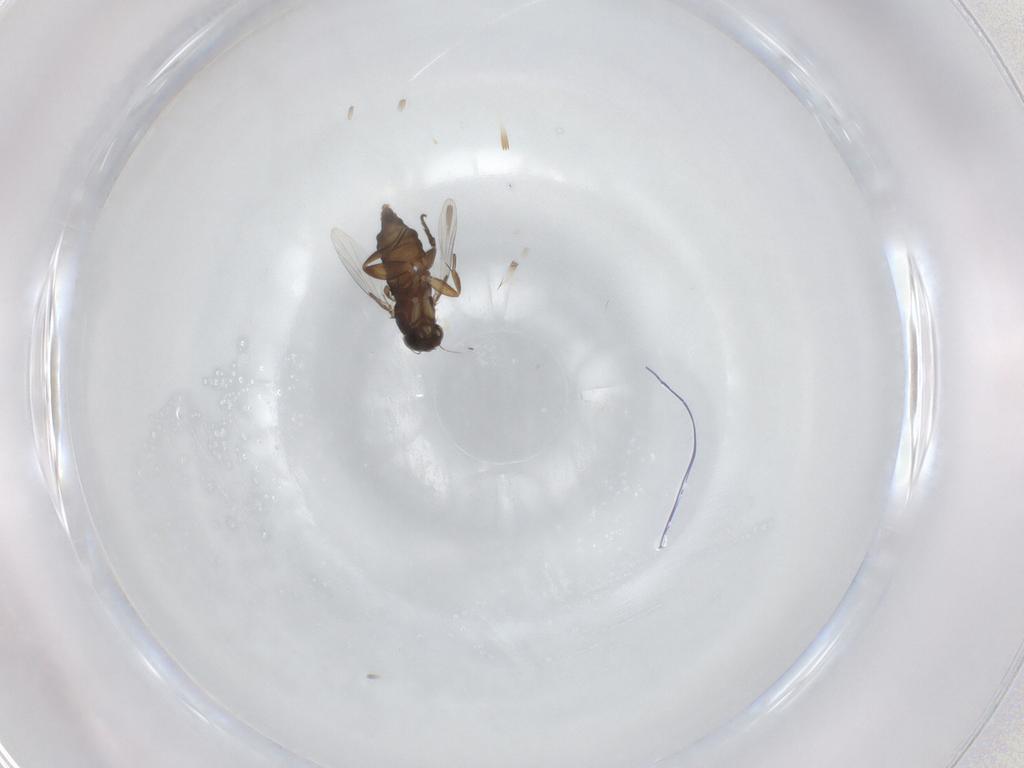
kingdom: Animalia
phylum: Arthropoda
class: Insecta
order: Diptera
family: Phoridae
